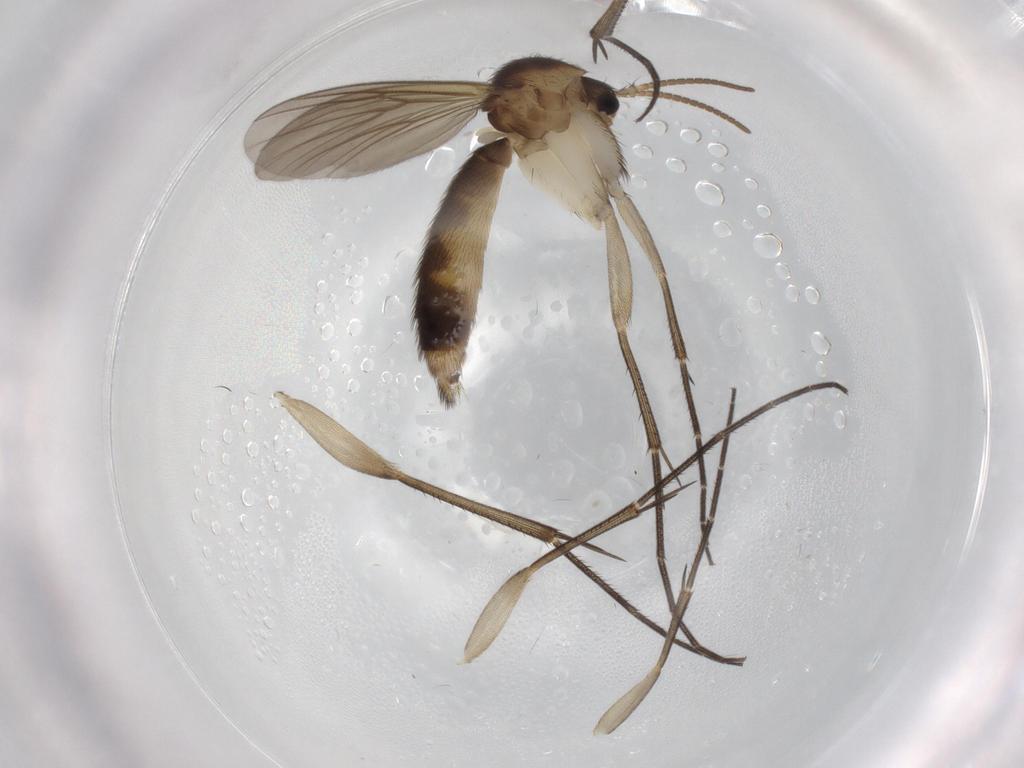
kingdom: Animalia
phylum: Arthropoda
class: Insecta
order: Diptera
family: Mycetophilidae
